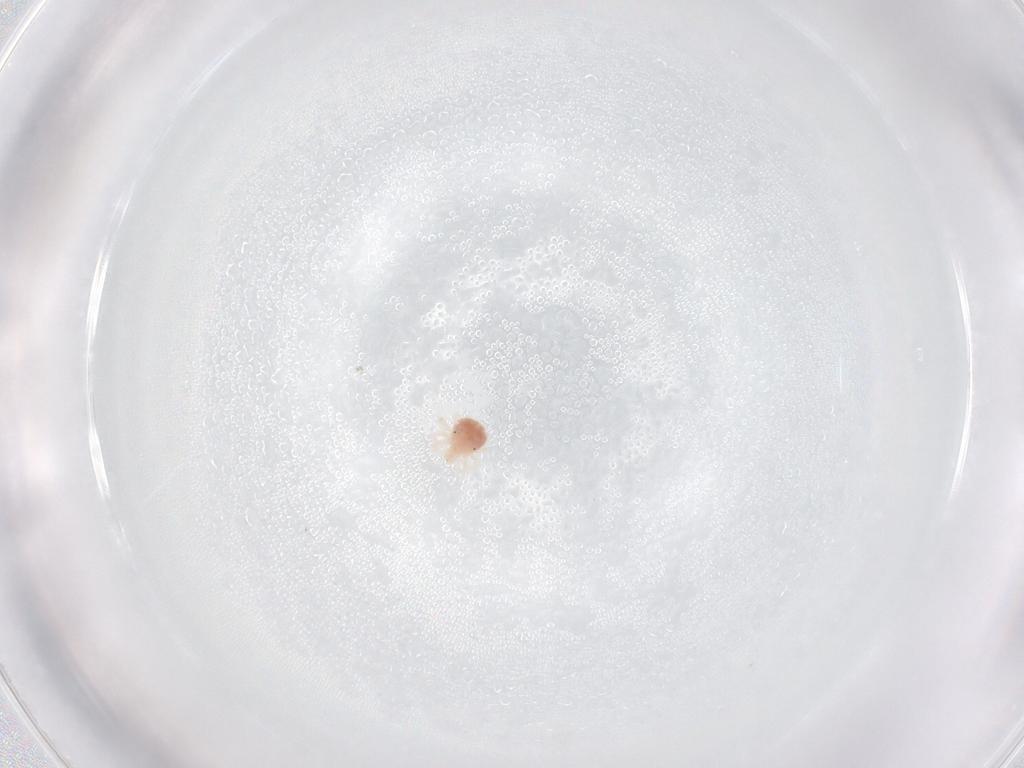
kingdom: Animalia
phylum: Arthropoda
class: Arachnida
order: Trombidiformes
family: Anystidae
